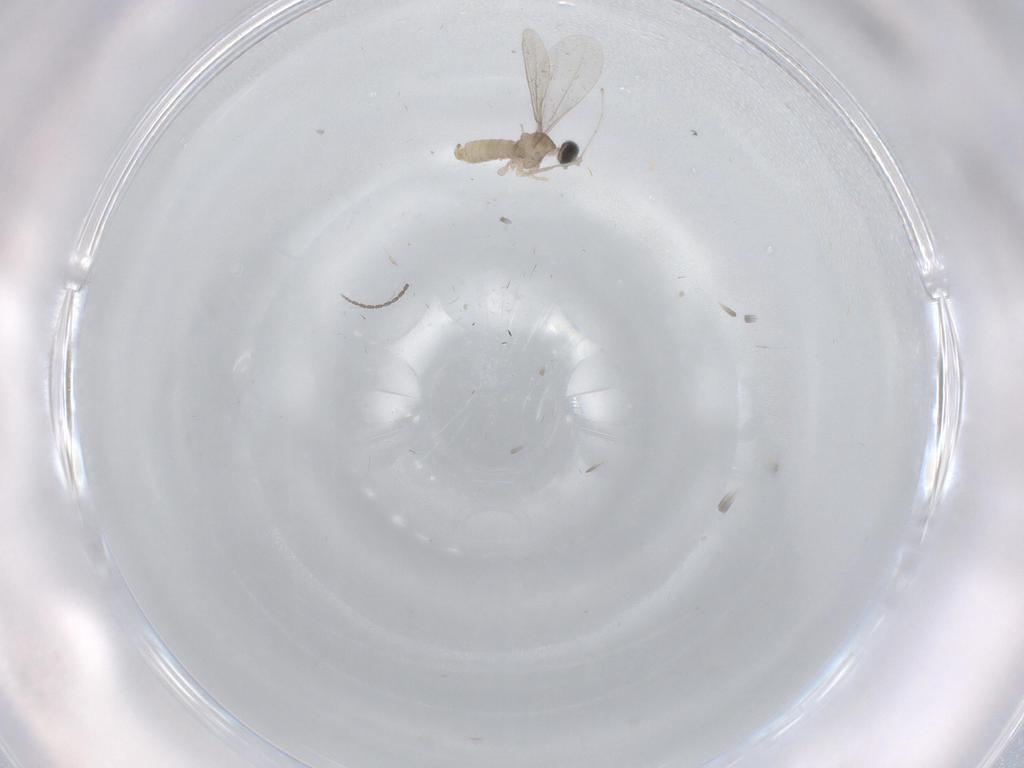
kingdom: Animalia
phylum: Arthropoda
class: Insecta
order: Diptera
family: Cecidomyiidae
